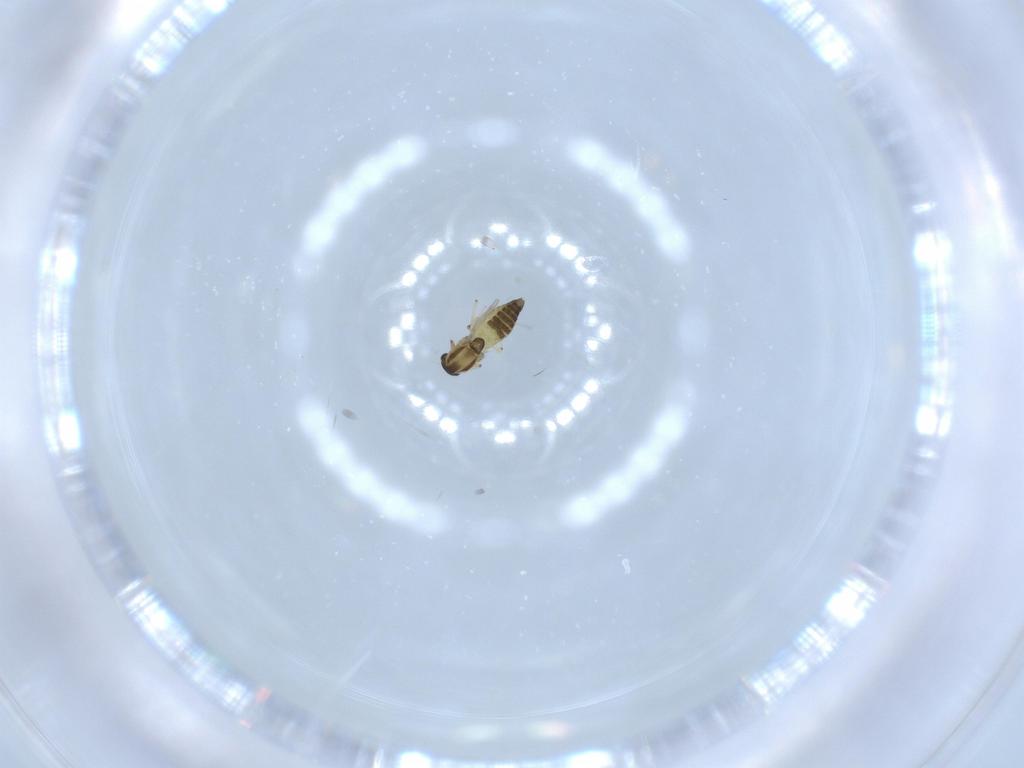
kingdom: Animalia
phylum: Arthropoda
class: Insecta
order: Diptera
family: Chironomidae
